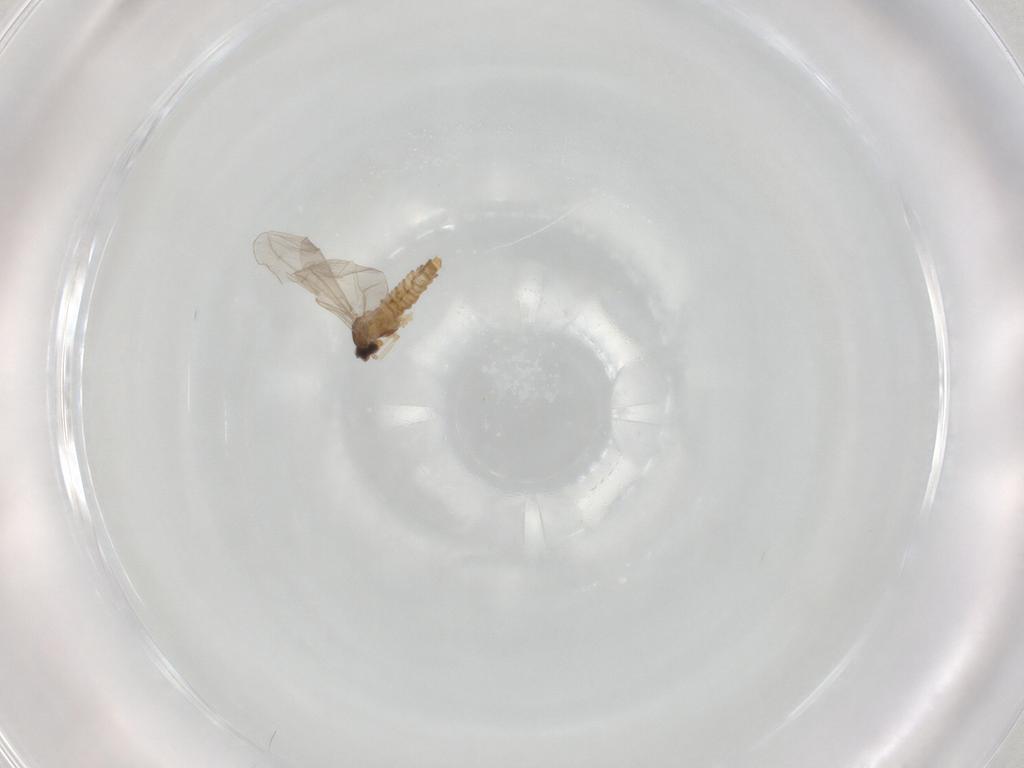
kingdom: Animalia
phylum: Arthropoda
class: Insecta
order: Diptera
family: Cecidomyiidae
